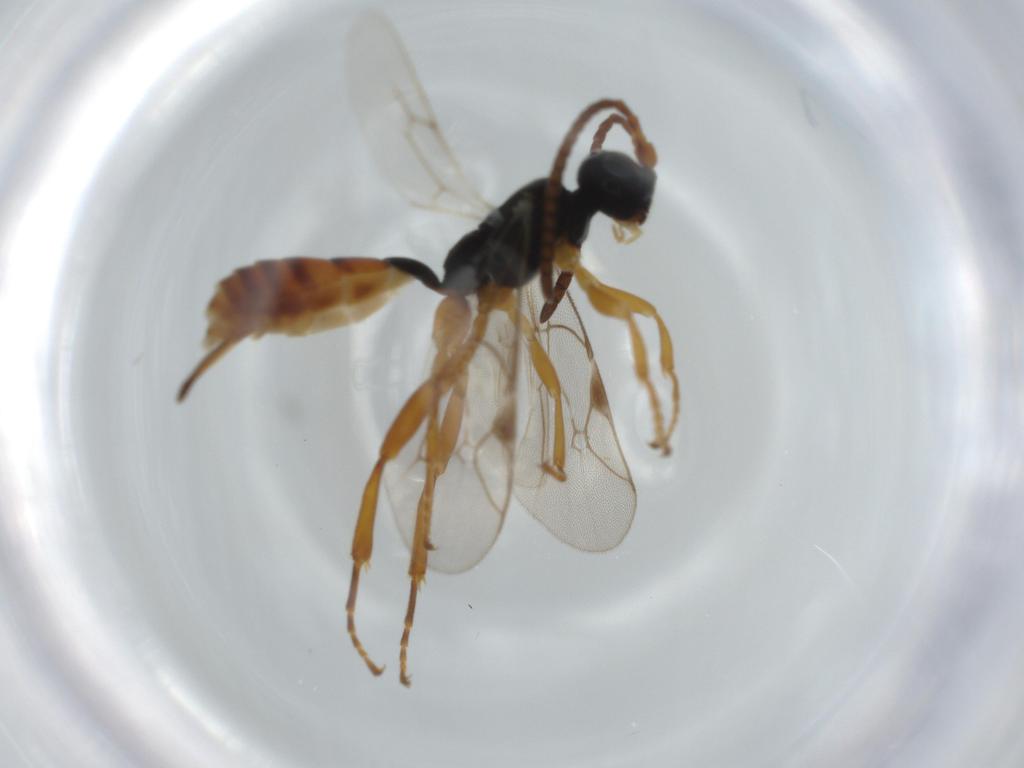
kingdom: Animalia
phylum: Arthropoda
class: Insecta
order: Hymenoptera
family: Ichneumonidae
